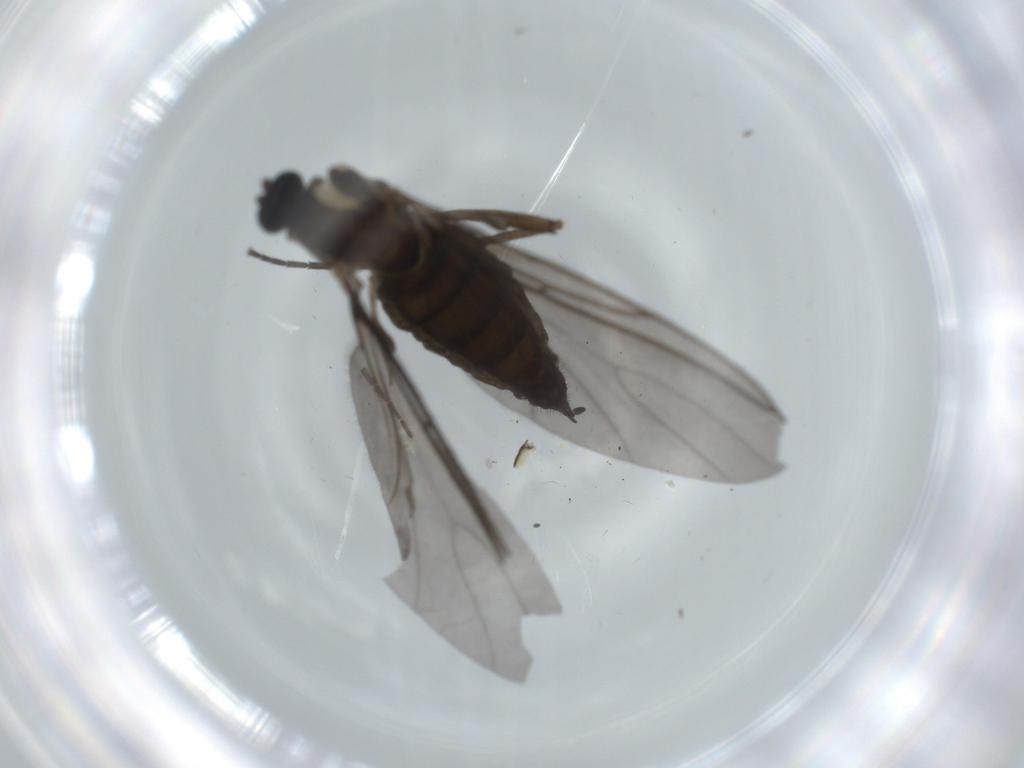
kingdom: Animalia
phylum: Arthropoda
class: Insecta
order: Diptera
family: Sciaridae
